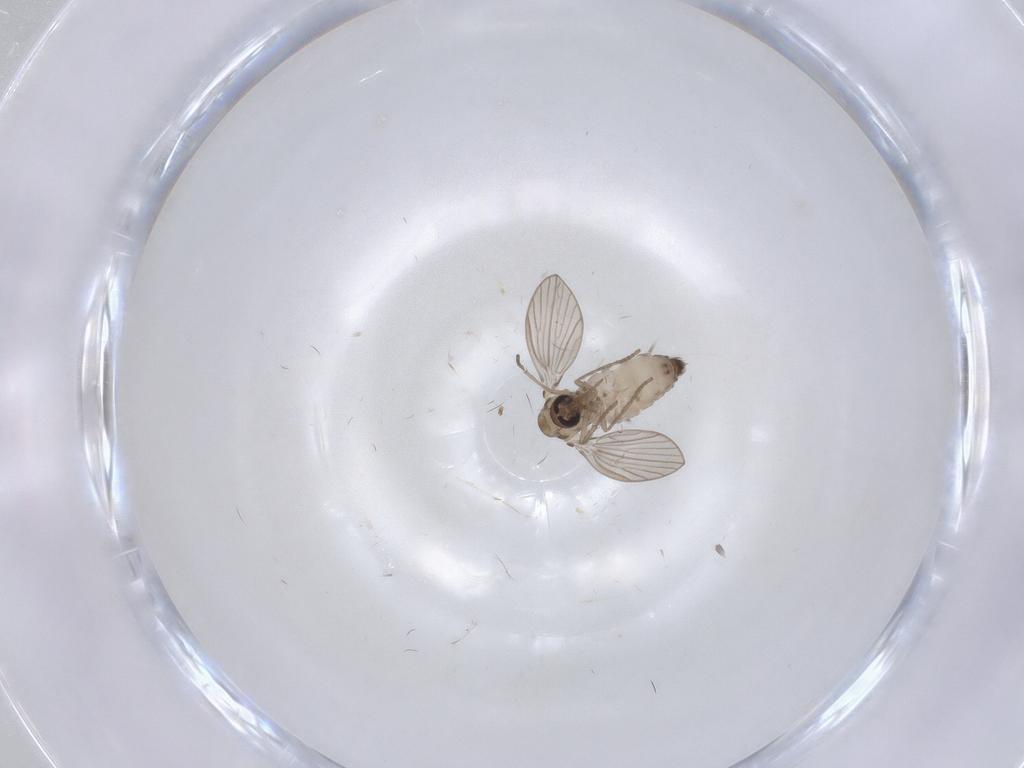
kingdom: Animalia
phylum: Arthropoda
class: Insecta
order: Diptera
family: Psychodidae
